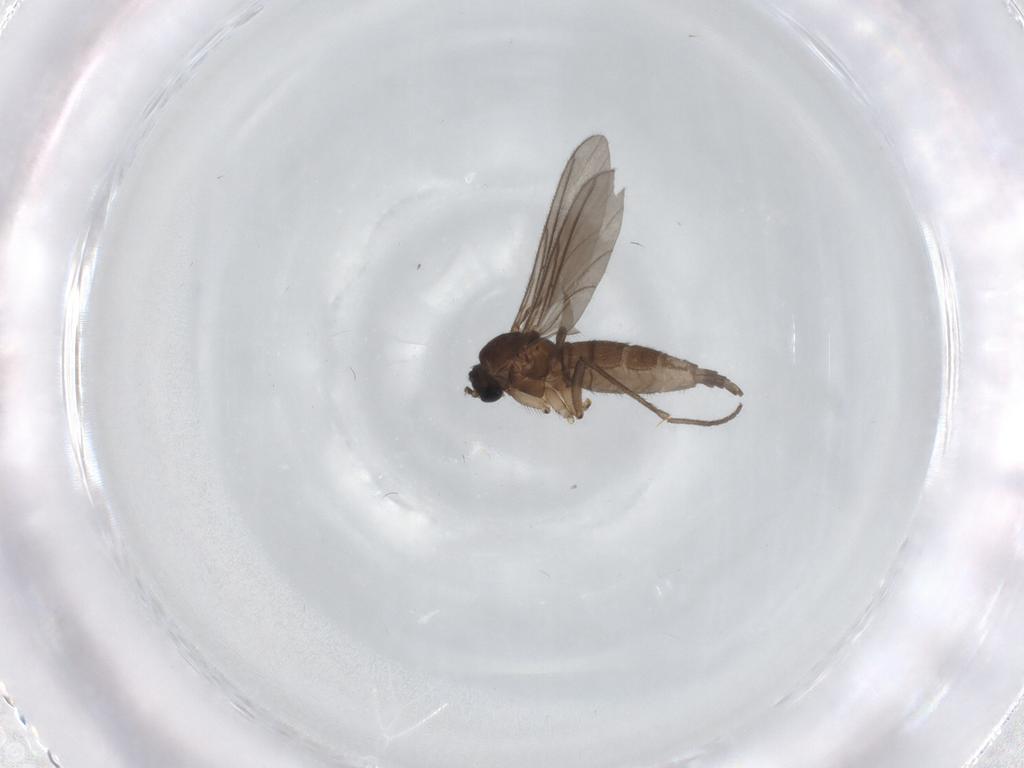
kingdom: Animalia
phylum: Arthropoda
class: Insecta
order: Diptera
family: Sciaridae
